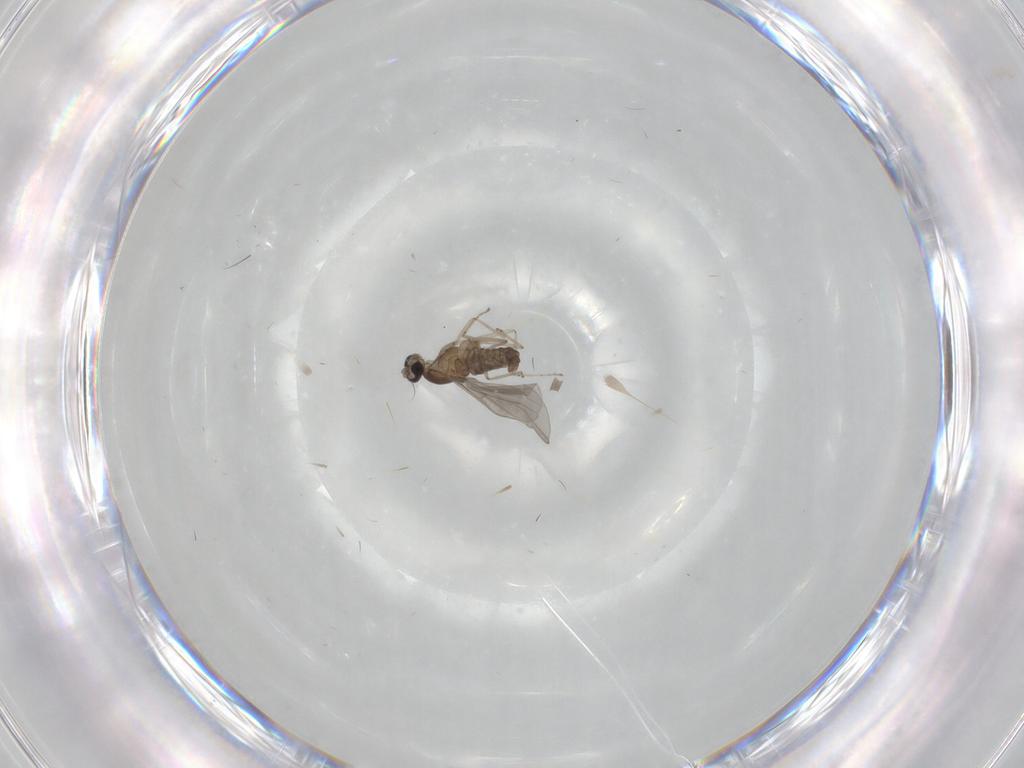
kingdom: Animalia
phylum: Arthropoda
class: Insecta
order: Diptera
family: Cecidomyiidae
